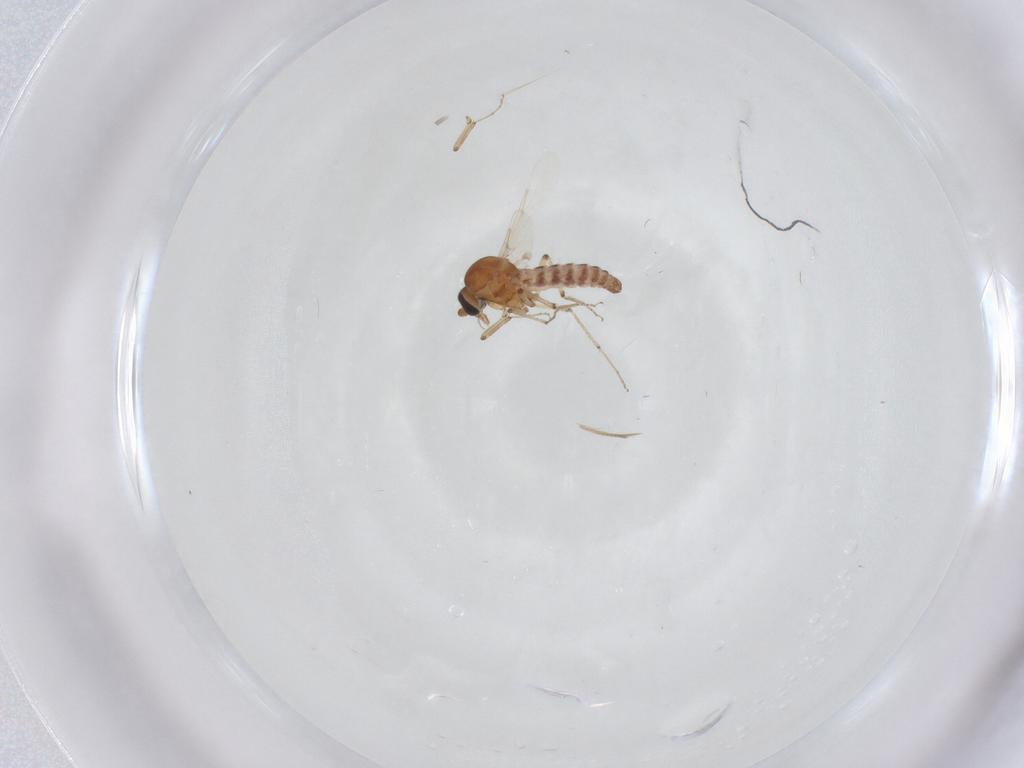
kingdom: Animalia
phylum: Arthropoda
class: Insecta
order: Diptera
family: Ceratopogonidae
